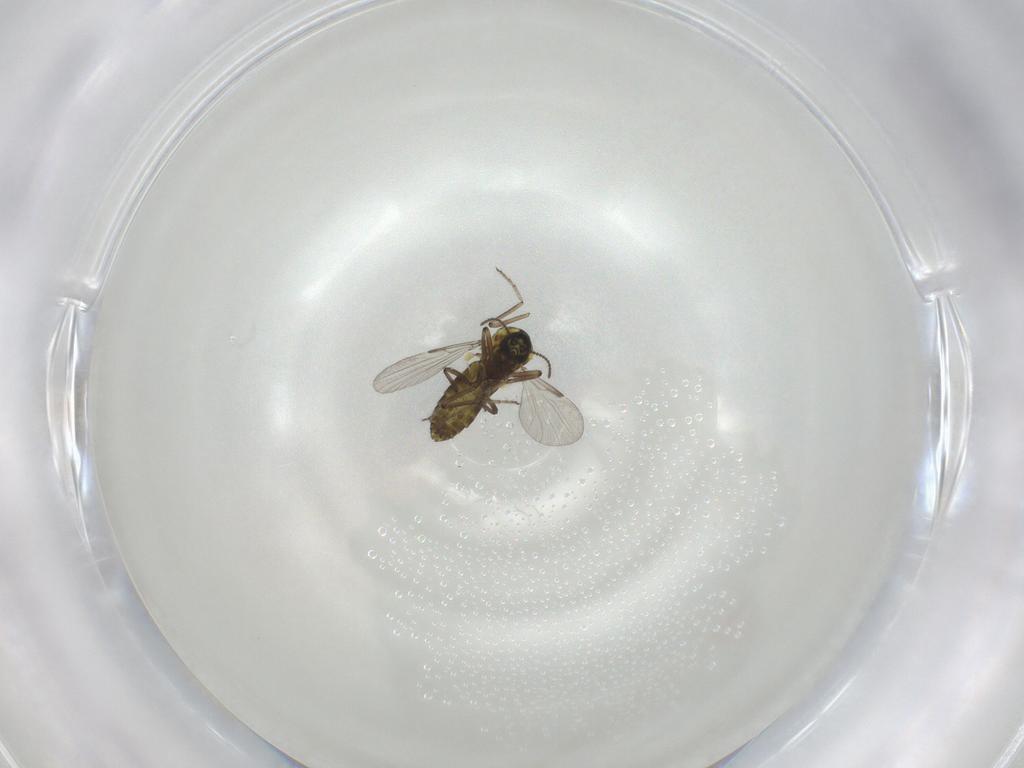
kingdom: Animalia
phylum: Arthropoda
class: Insecta
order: Diptera
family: Ceratopogonidae
